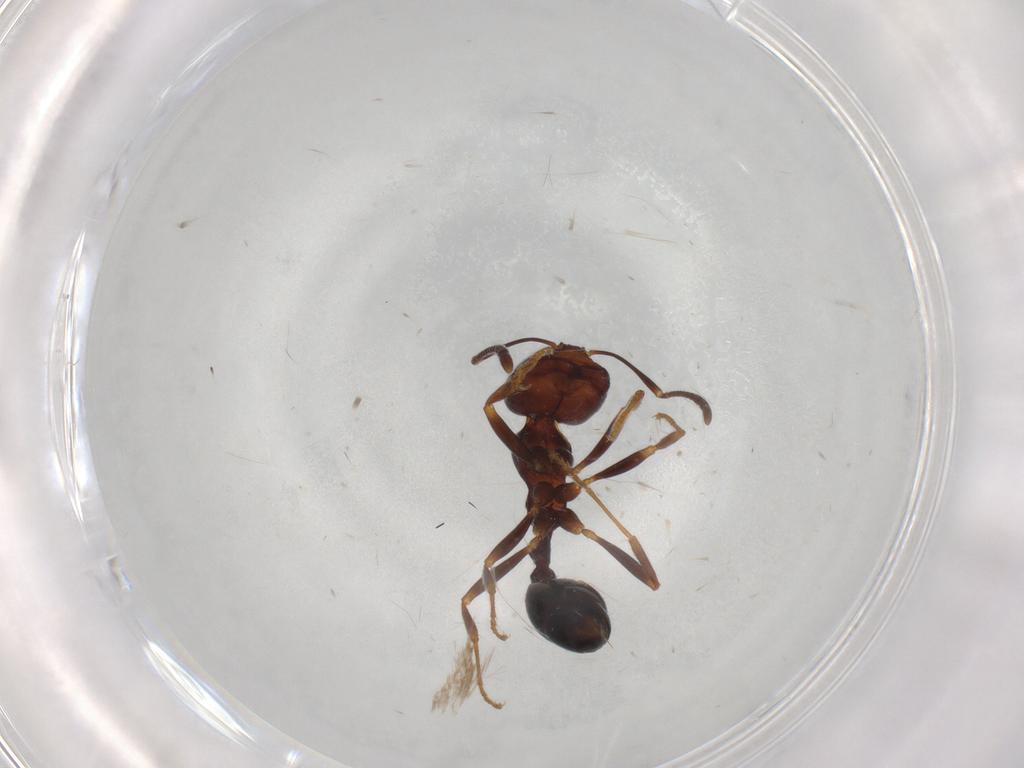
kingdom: Animalia
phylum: Arthropoda
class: Insecta
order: Hymenoptera
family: Formicidae
